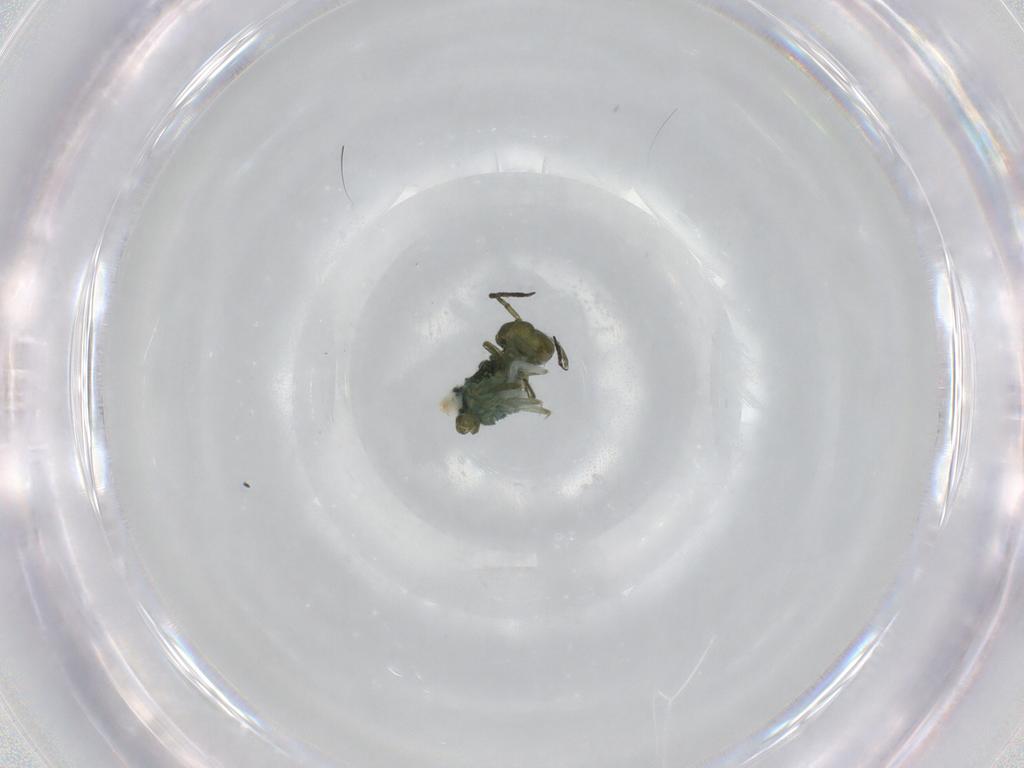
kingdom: Animalia
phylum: Arthropoda
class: Collembola
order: Symphypleona
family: Sminthuridae
